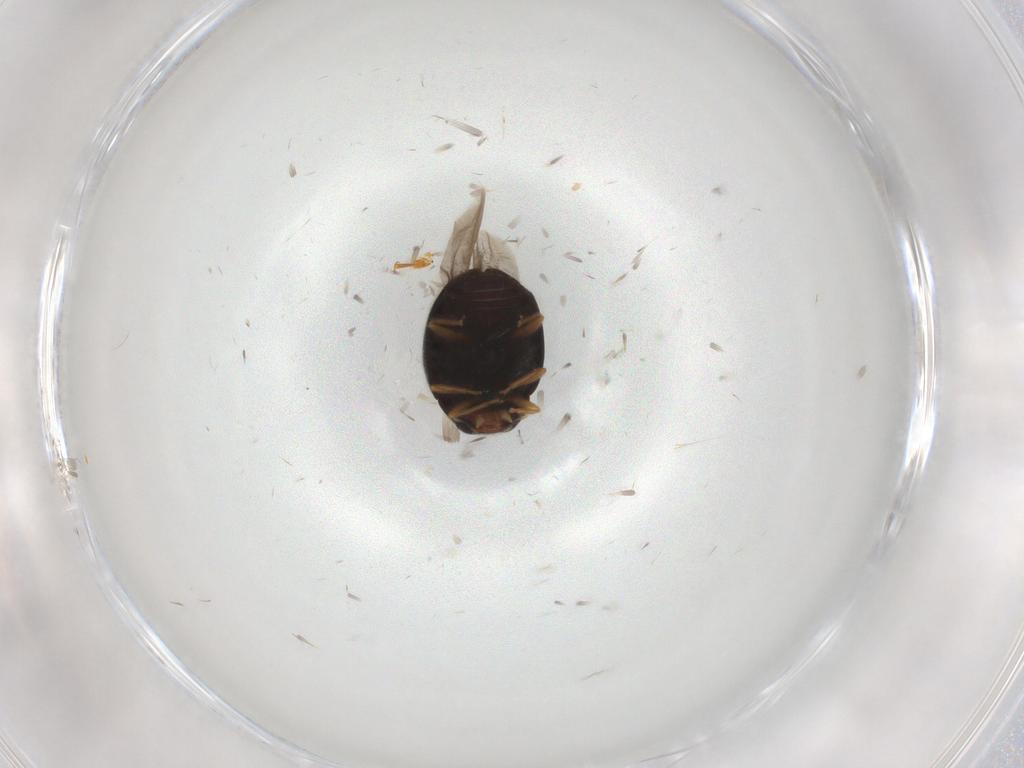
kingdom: Animalia
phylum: Arthropoda
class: Insecta
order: Coleoptera
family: Coccinellidae
